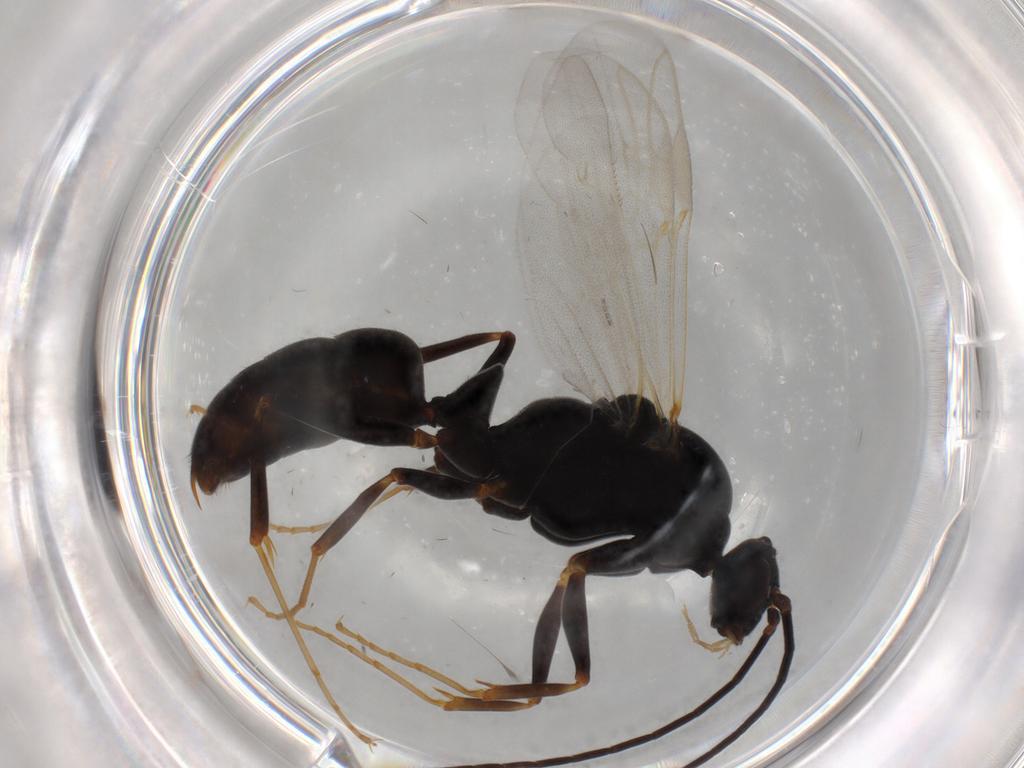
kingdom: Animalia
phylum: Arthropoda
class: Insecta
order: Hymenoptera
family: Formicidae
